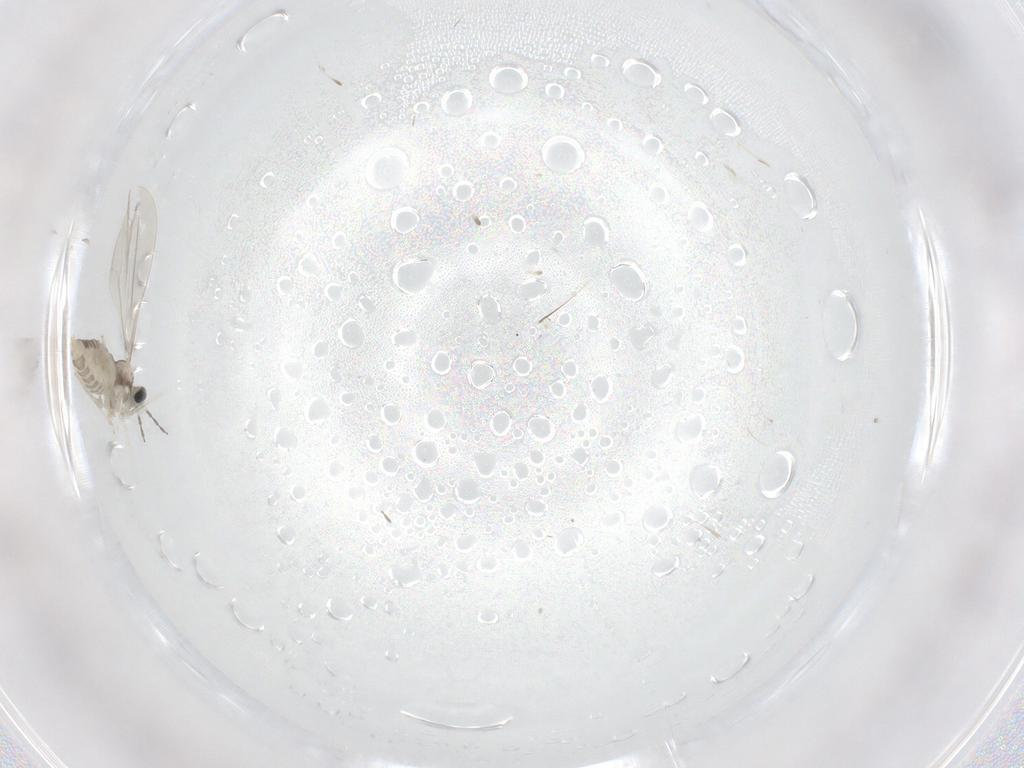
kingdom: Animalia
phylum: Arthropoda
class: Insecta
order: Diptera
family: Cecidomyiidae
